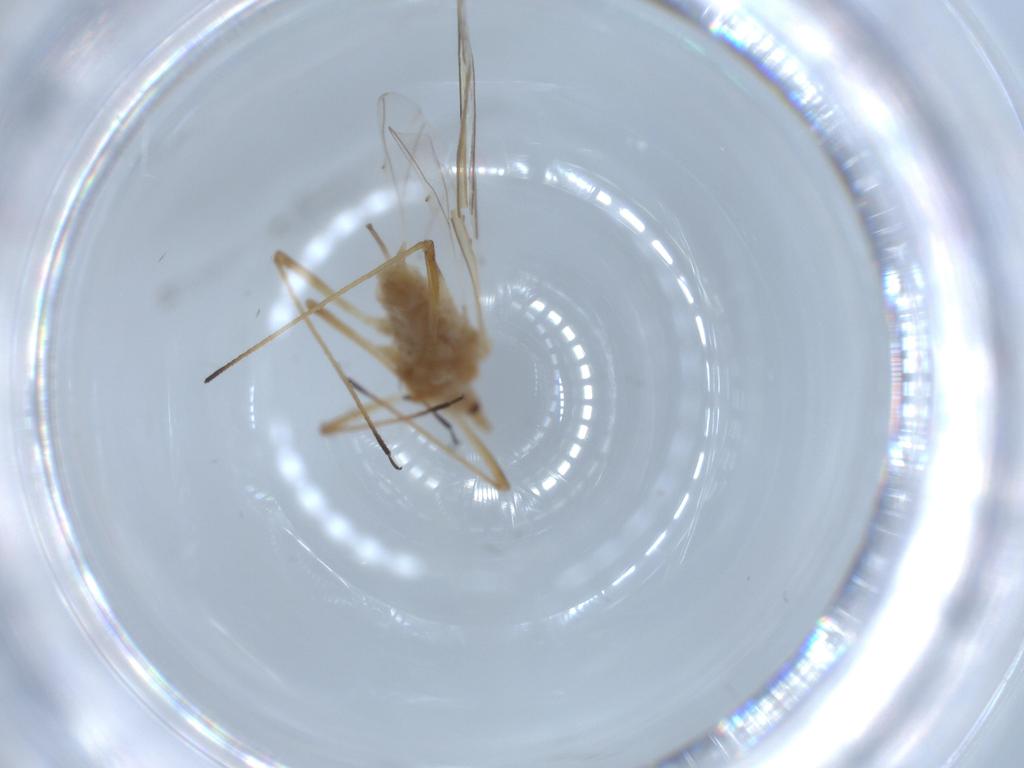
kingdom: Animalia
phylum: Arthropoda
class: Insecta
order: Hemiptera
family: Aphididae
